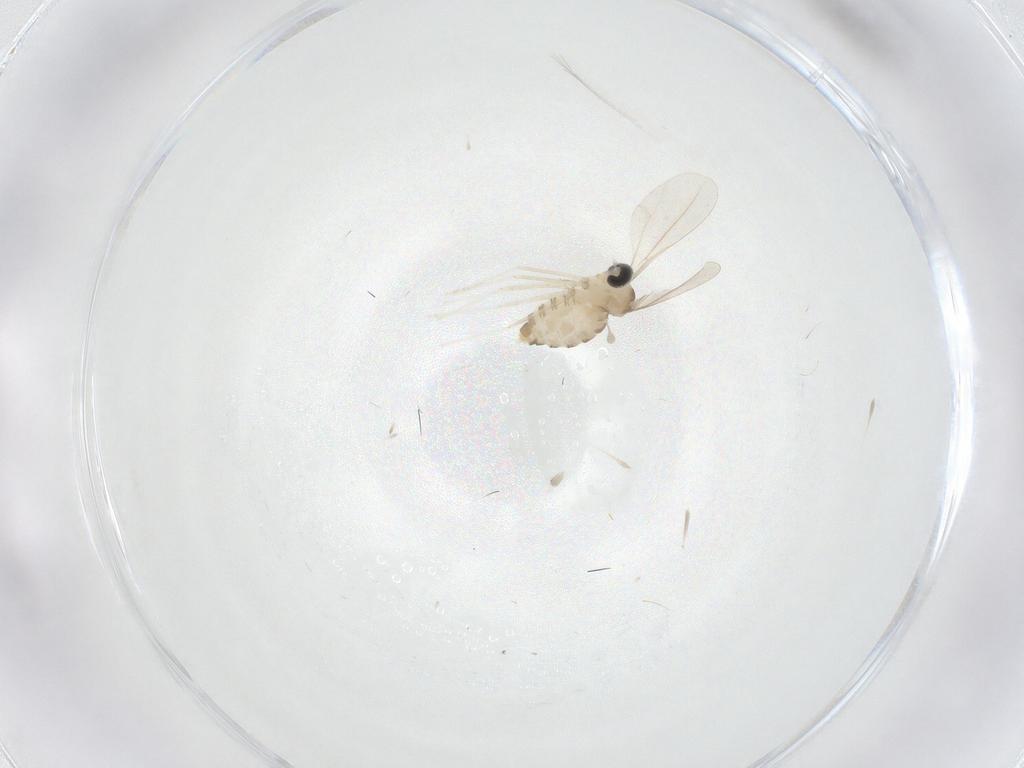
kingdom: Animalia
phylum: Arthropoda
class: Insecta
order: Diptera
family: Cecidomyiidae
